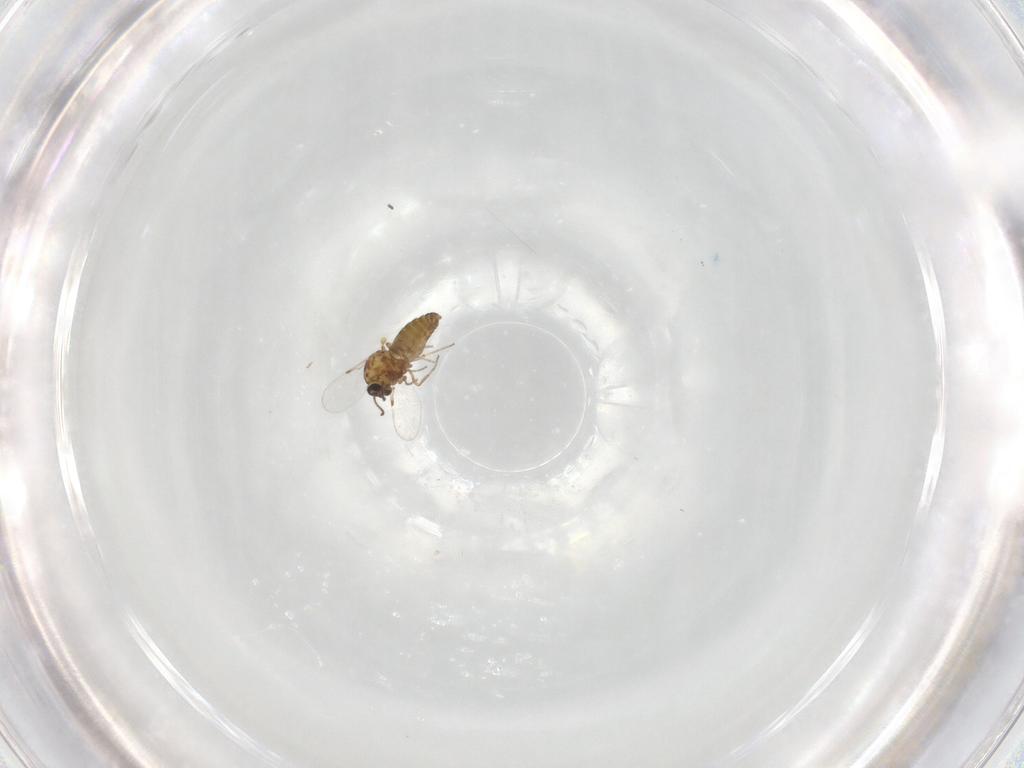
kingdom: Animalia
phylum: Arthropoda
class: Insecta
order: Diptera
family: Ceratopogonidae
